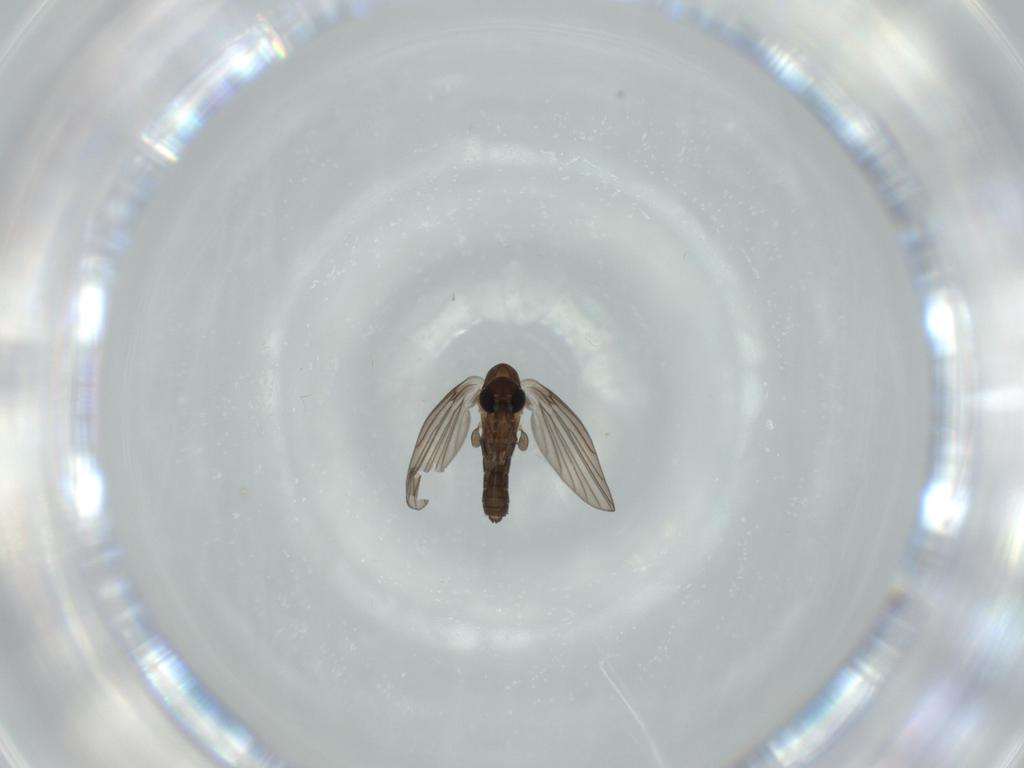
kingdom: Animalia
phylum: Arthropoda
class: Insecta
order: Diptera
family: Psychodidae
